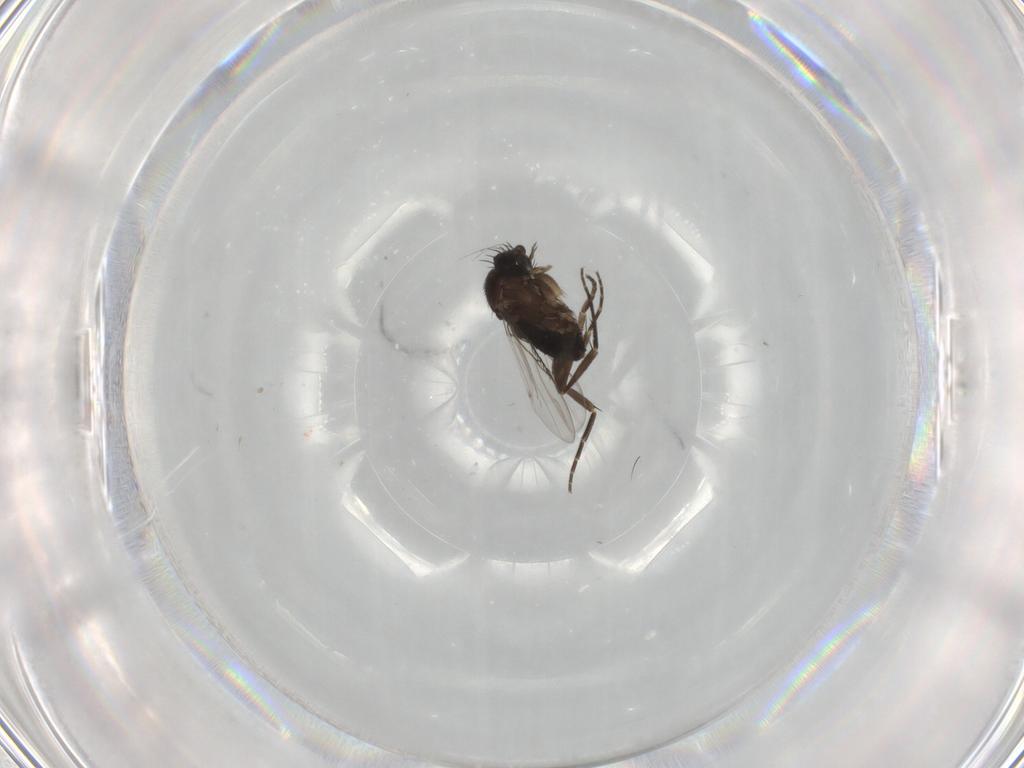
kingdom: Animalia
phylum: Arthropoda
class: Insecta
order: Diptera
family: Phoridae
